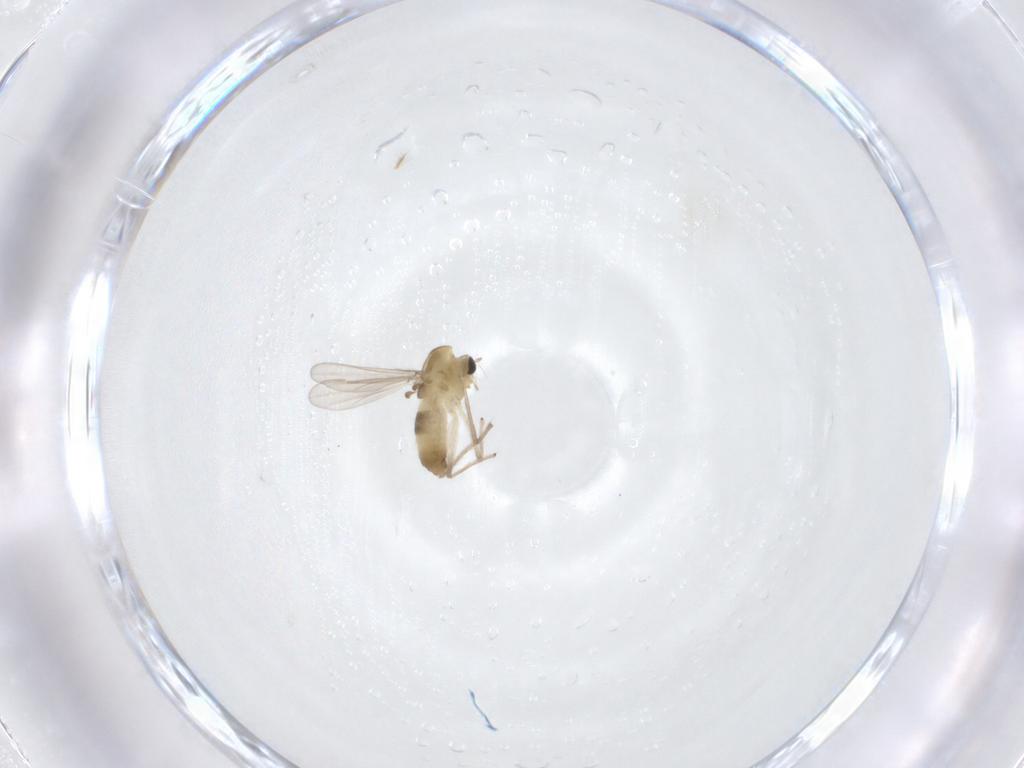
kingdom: Animalia
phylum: Arthropoda
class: Insecta
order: Diptera
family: Chironomidae
